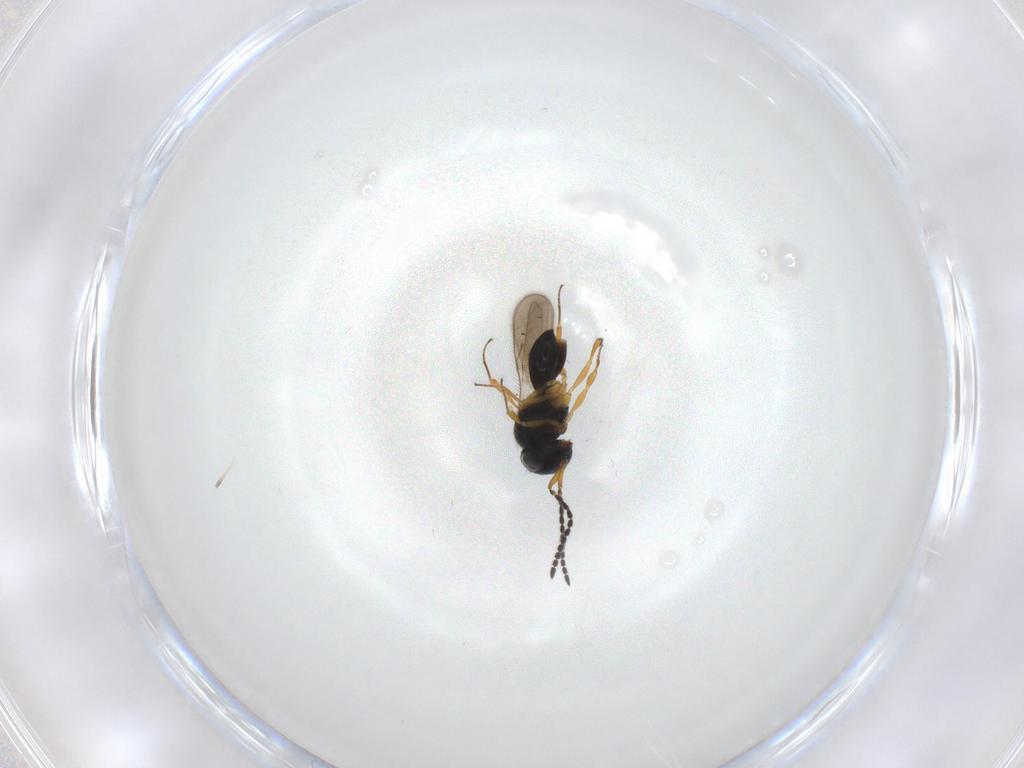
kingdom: Animalia
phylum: Arthropoda
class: Insecta
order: Hymenoptera
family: Scelionidae
